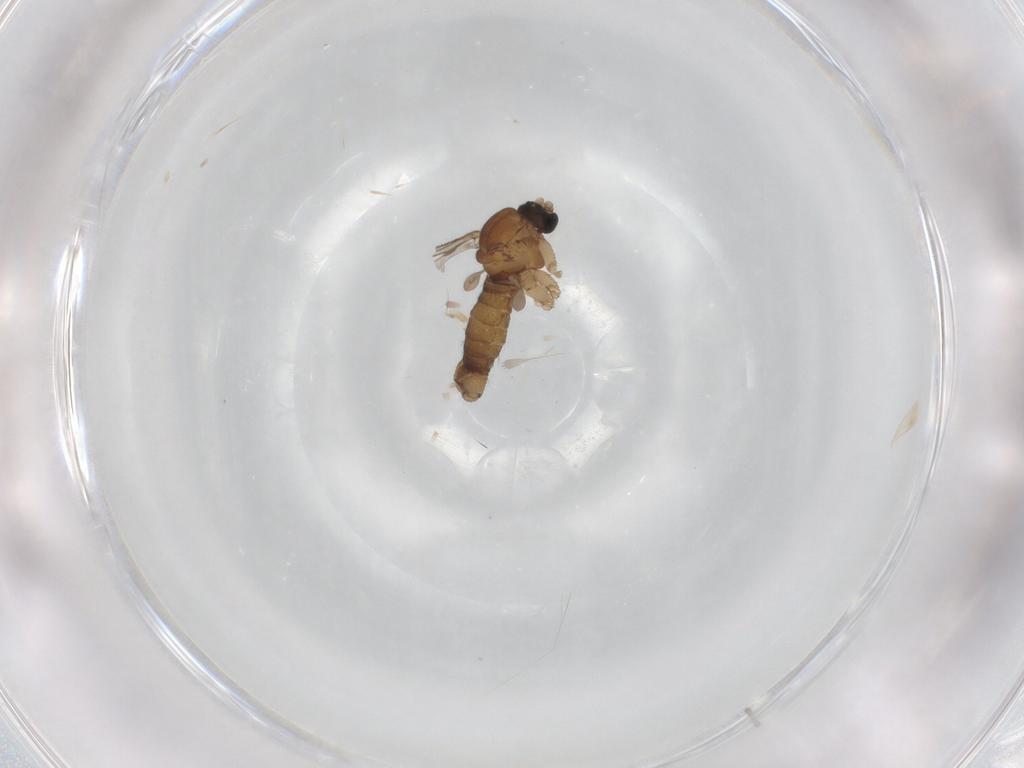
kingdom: Animalia
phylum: Arthropoda
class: Insecta
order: Diptera
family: Sciaridae
